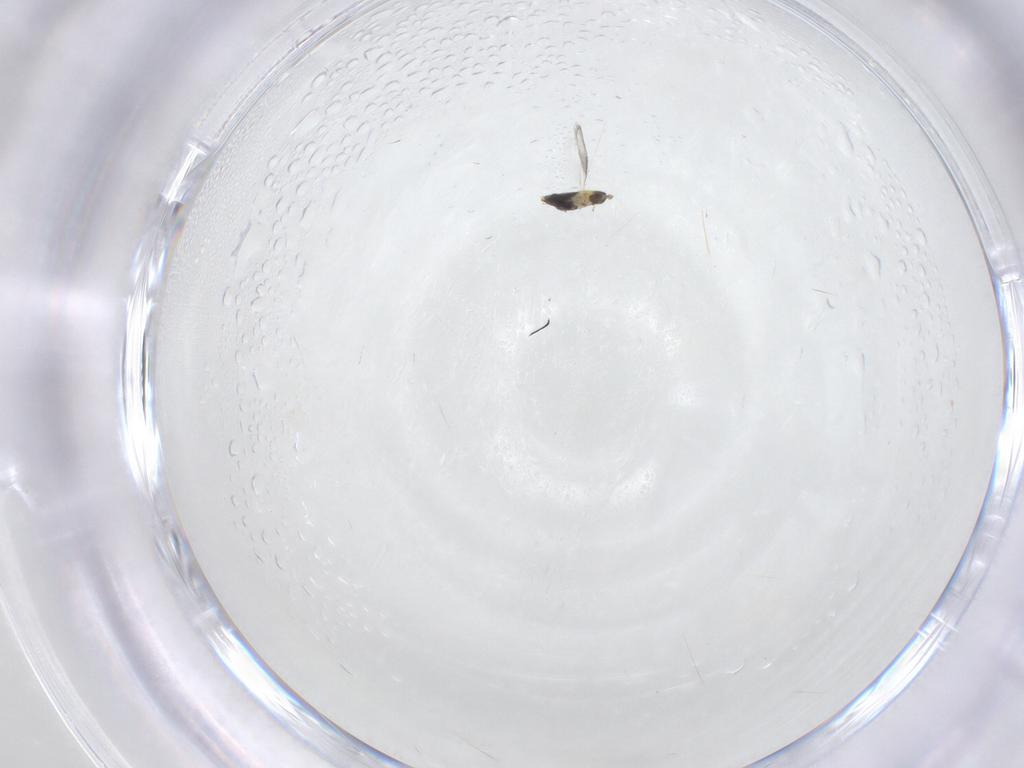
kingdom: Animalia
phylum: Arthropoda
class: Insecta
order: Hymenoptera
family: Aphelinidae
